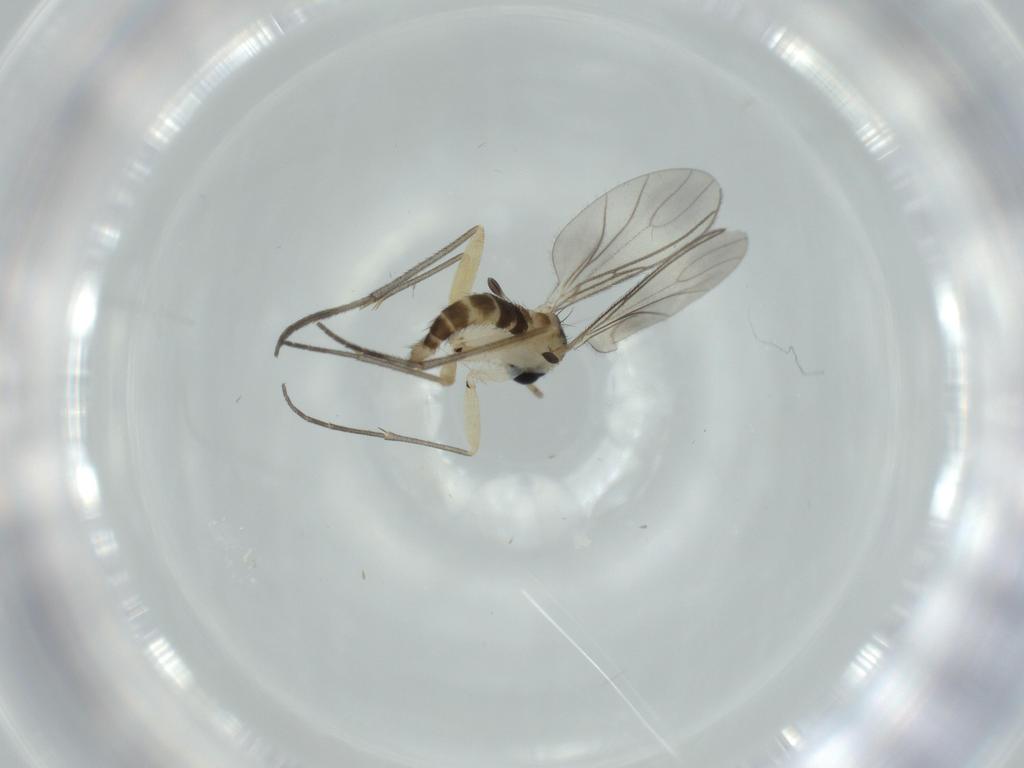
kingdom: Animalia
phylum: Arthropoda
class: Insecta
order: Diptera
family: Sciaridae
